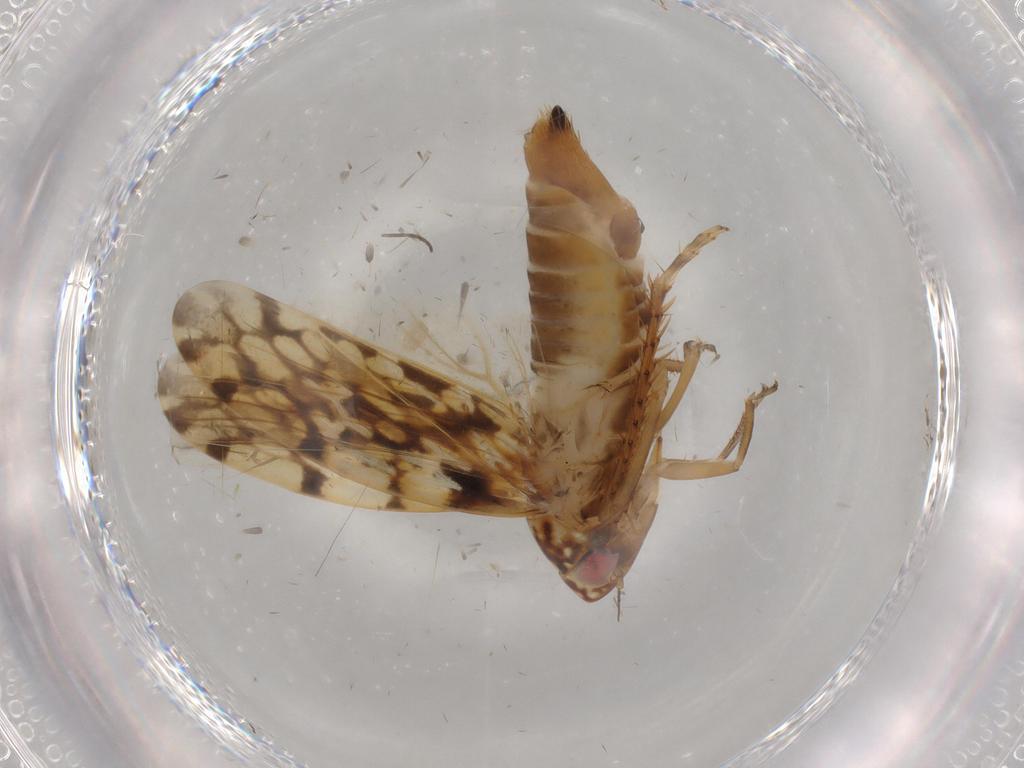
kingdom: Animalia
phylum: Arthropoda
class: Insecta
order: Hemiptera
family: Cicadellidae
